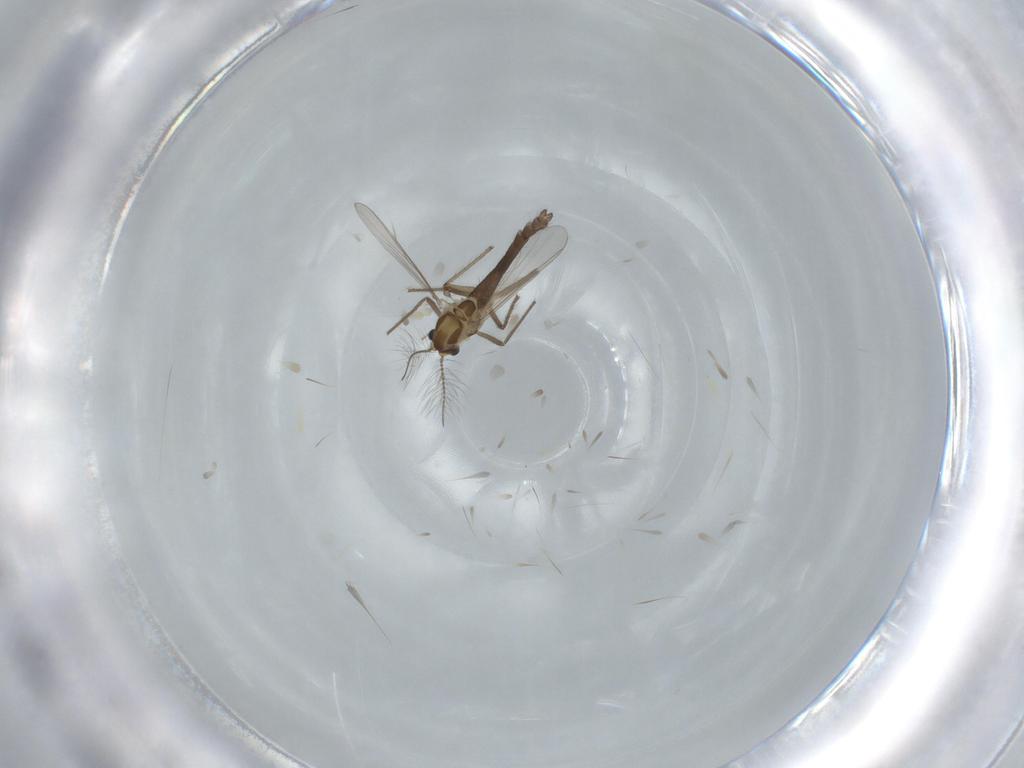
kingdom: Animalia
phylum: Arthropoda
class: Insecta
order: Diptera
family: Chironomidae
